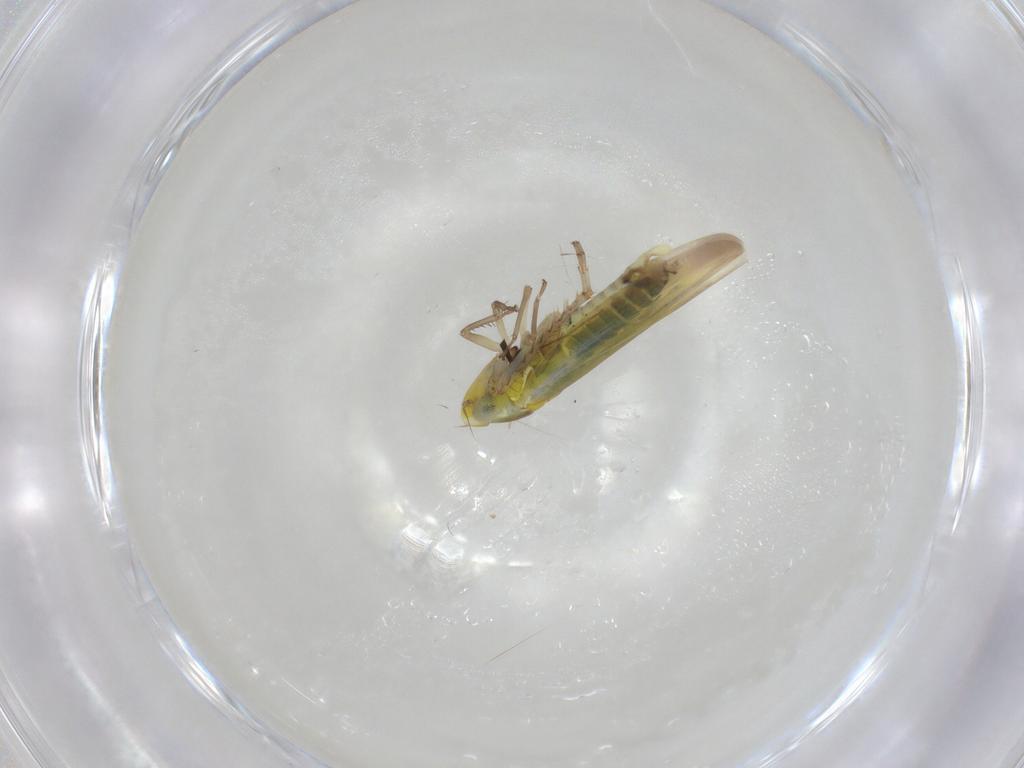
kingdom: Animalia
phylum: Arthropoda
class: Insecta
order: Hemiptera
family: Cicadellidae
